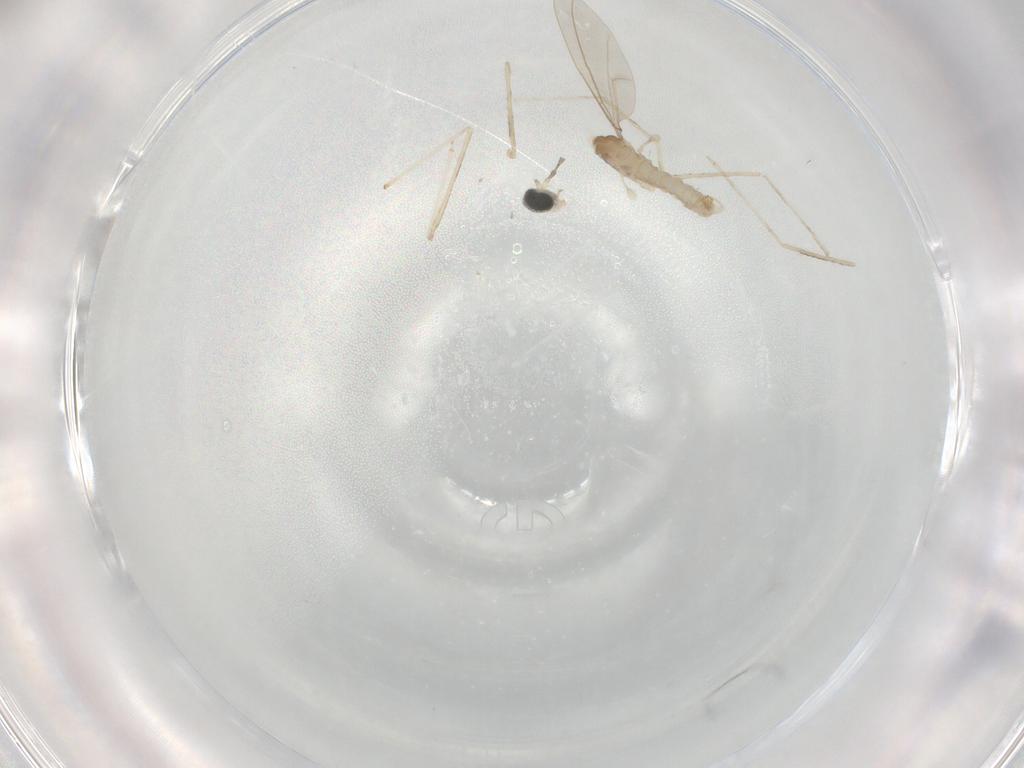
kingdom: Animalia
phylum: Arthropoda
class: Insecta
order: Diptera
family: Cecidomyiidae
